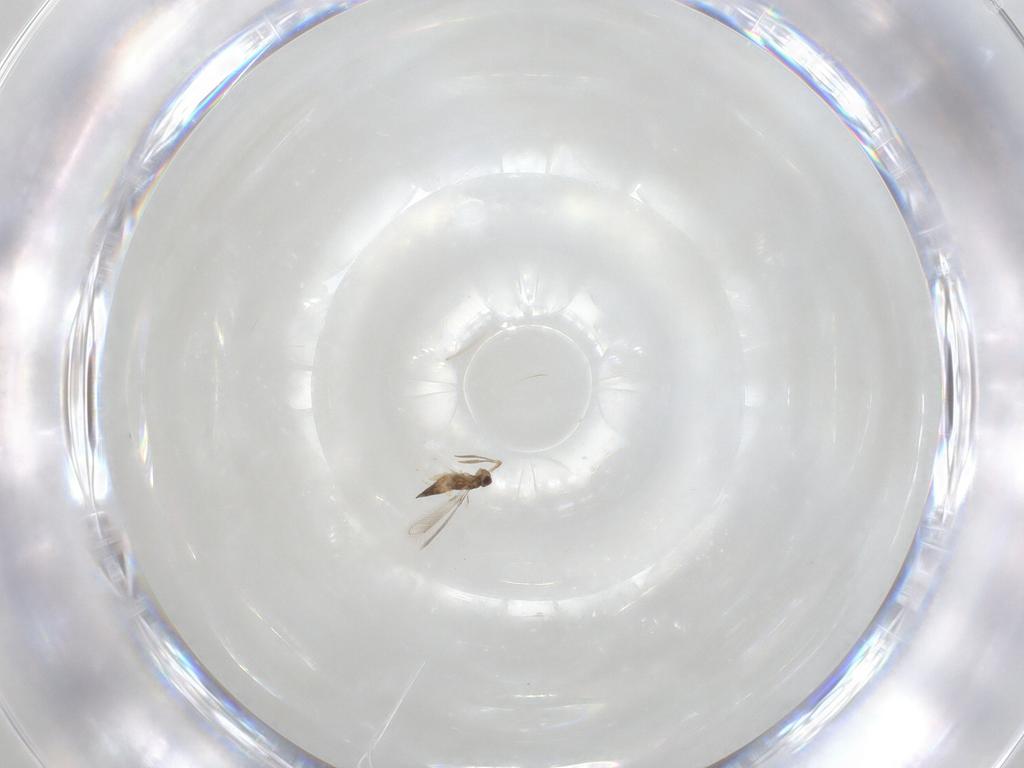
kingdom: Animalia
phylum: Arthropoda
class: Insecta
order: Hymenoptera
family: Mymaridae
